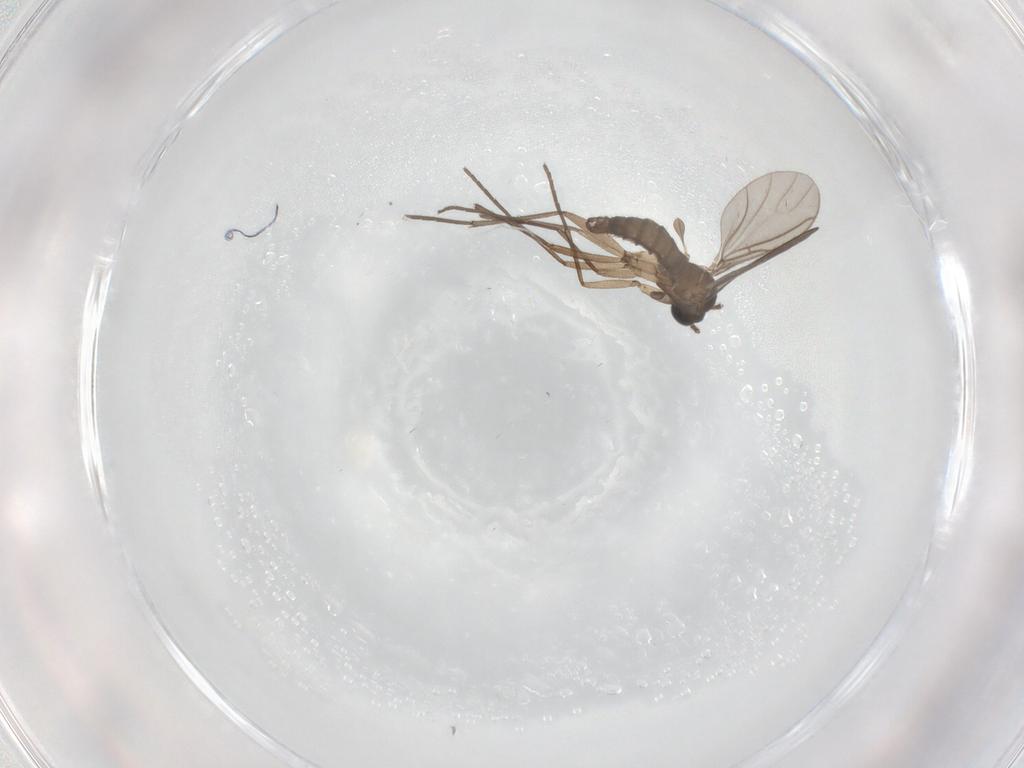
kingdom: Animalia
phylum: Arthropoda
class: Insecta
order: Diptera
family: Sciaridae
